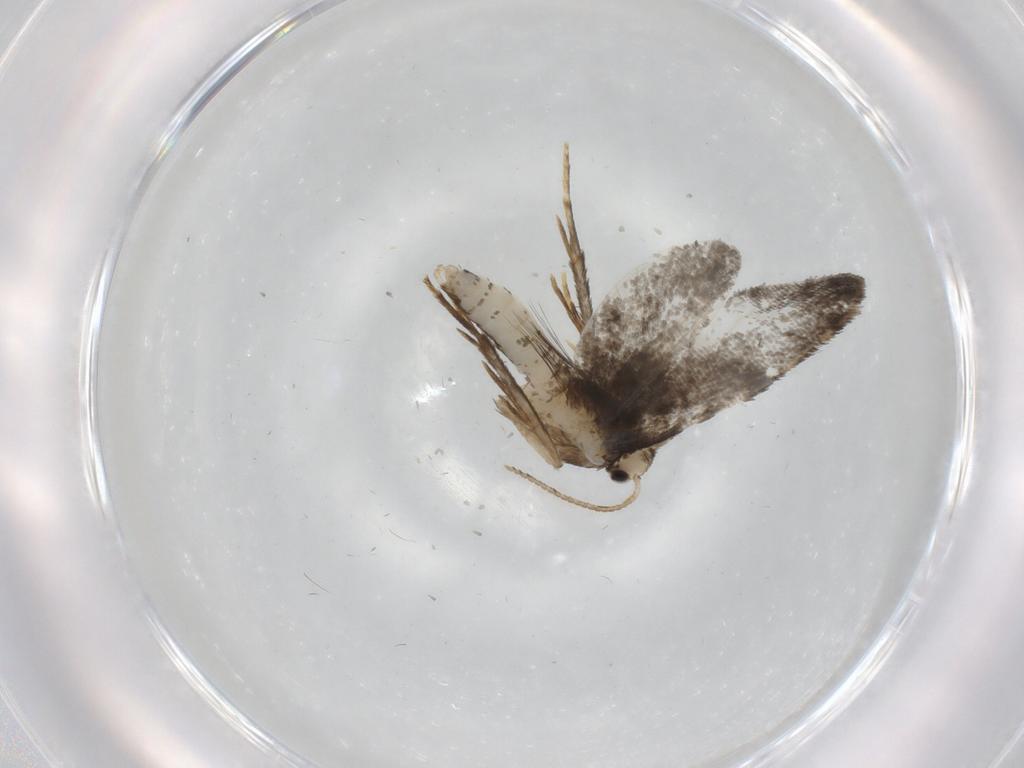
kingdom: Animalia
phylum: Arthropoda
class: Insecta
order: Lepidoptera
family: Psychidae
